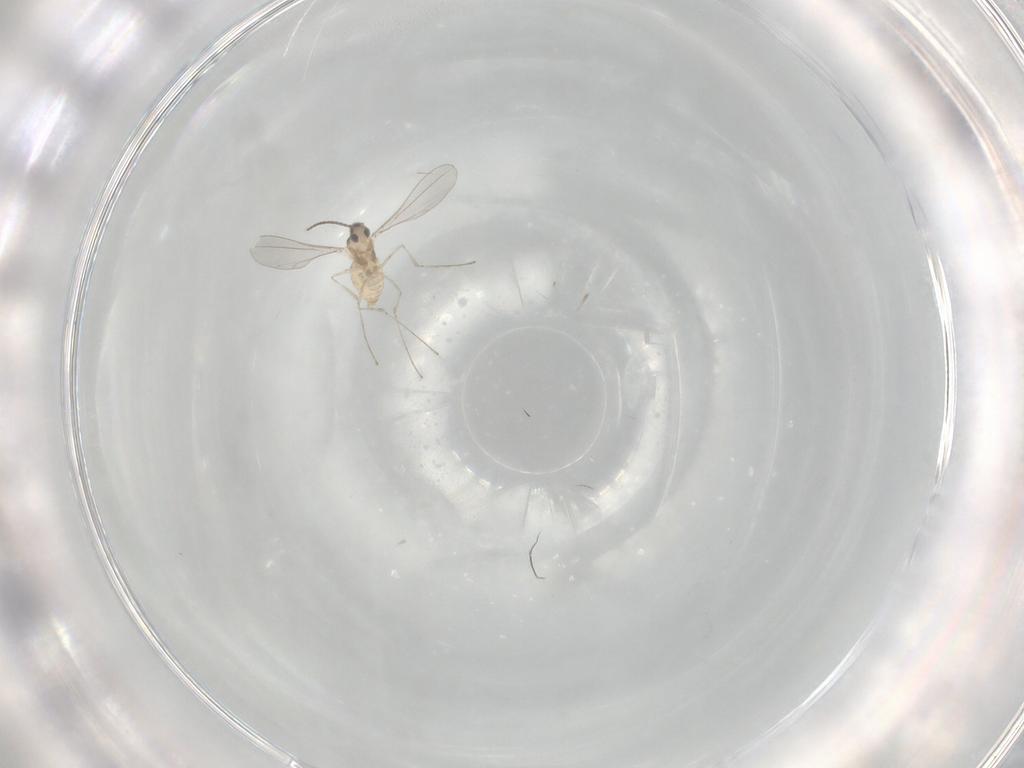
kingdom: Animalia
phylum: Arthropoda
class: Insecta
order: Diptera
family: Cecidomyiidae
